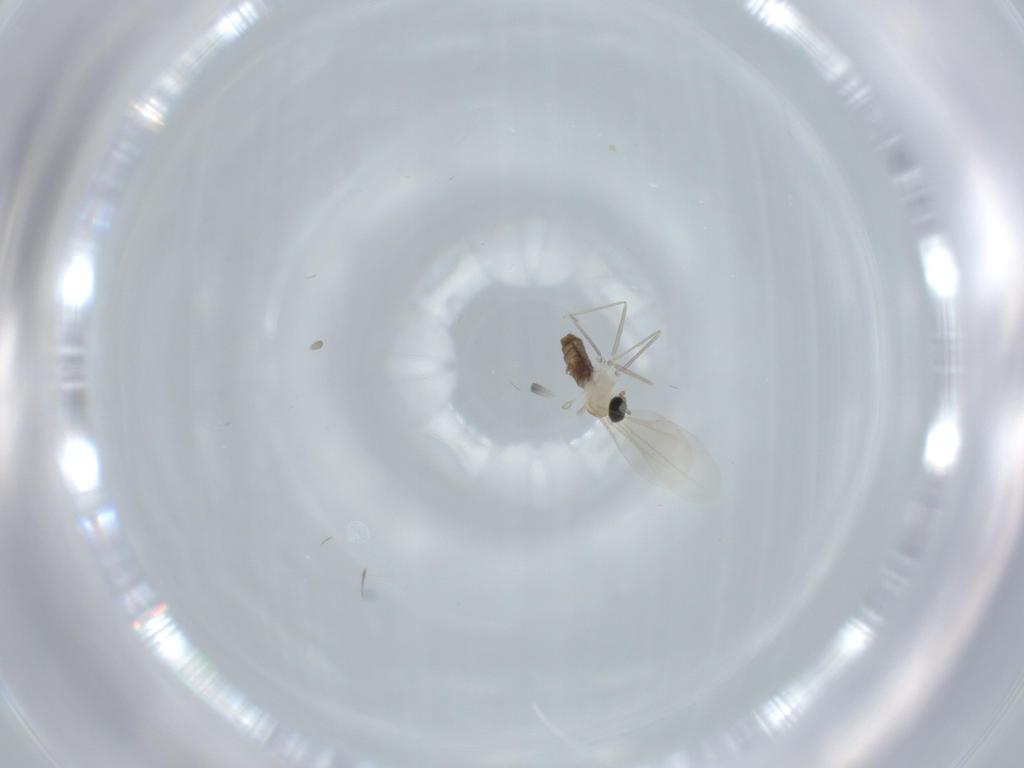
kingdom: Animalia
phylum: Arthropoda
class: Insecta
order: Diptera
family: Cecidomyiidae
